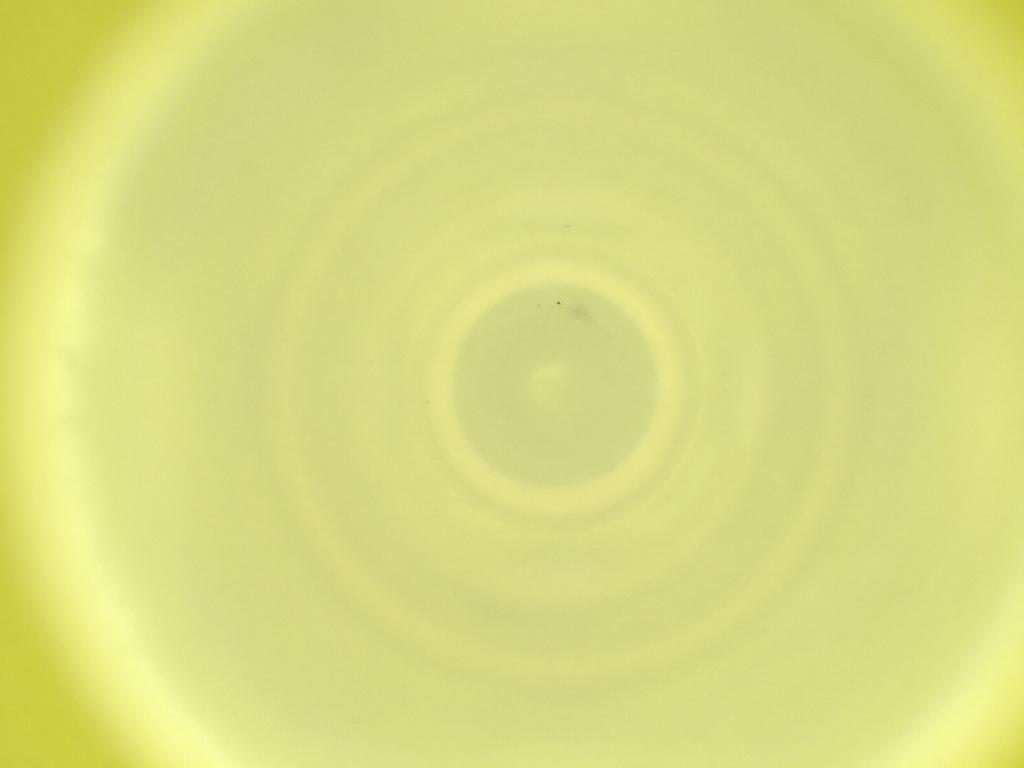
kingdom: Animalia
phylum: Arthropoda
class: Insecta
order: Diptera
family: Cecidomyiidae
